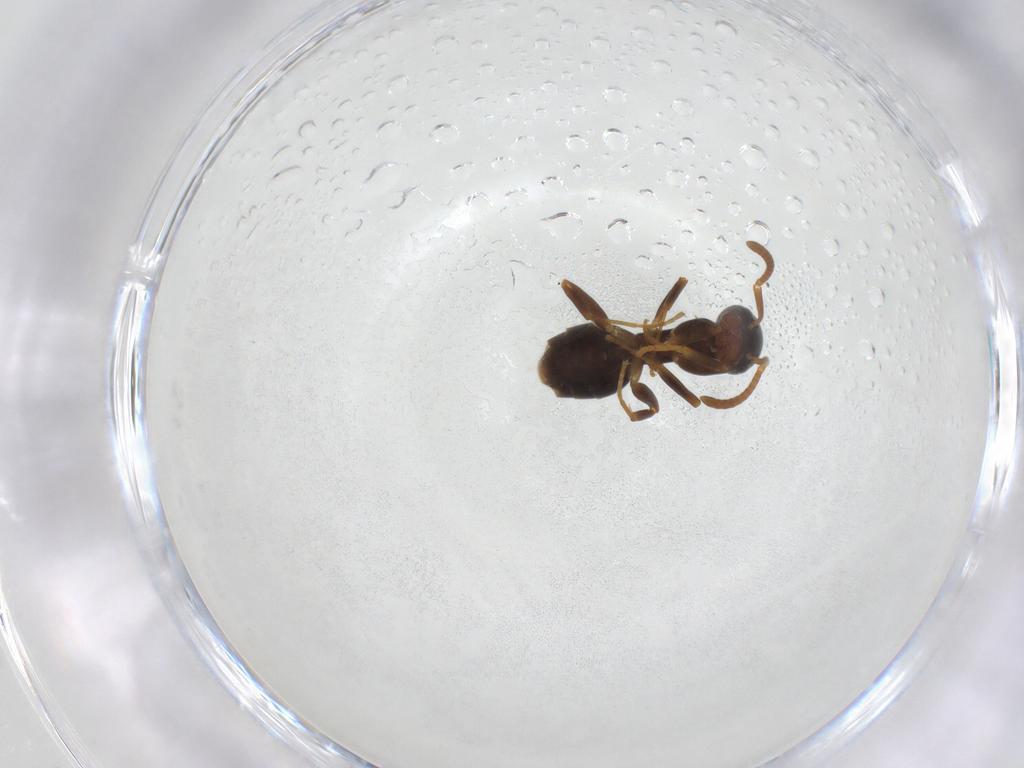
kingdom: Animalia
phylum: Arthropoda
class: Insecta
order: Hymenoptera
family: Formicidae
